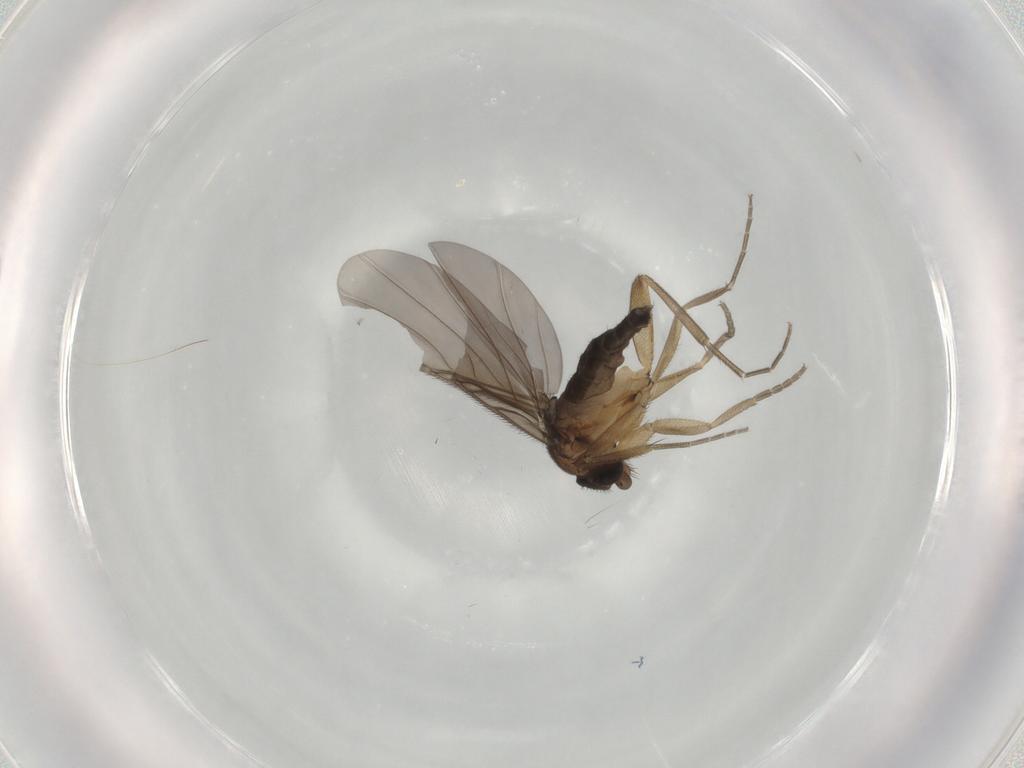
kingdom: Animalia
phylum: Arthropoda
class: Insecta
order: Diptera
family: Phoridae
